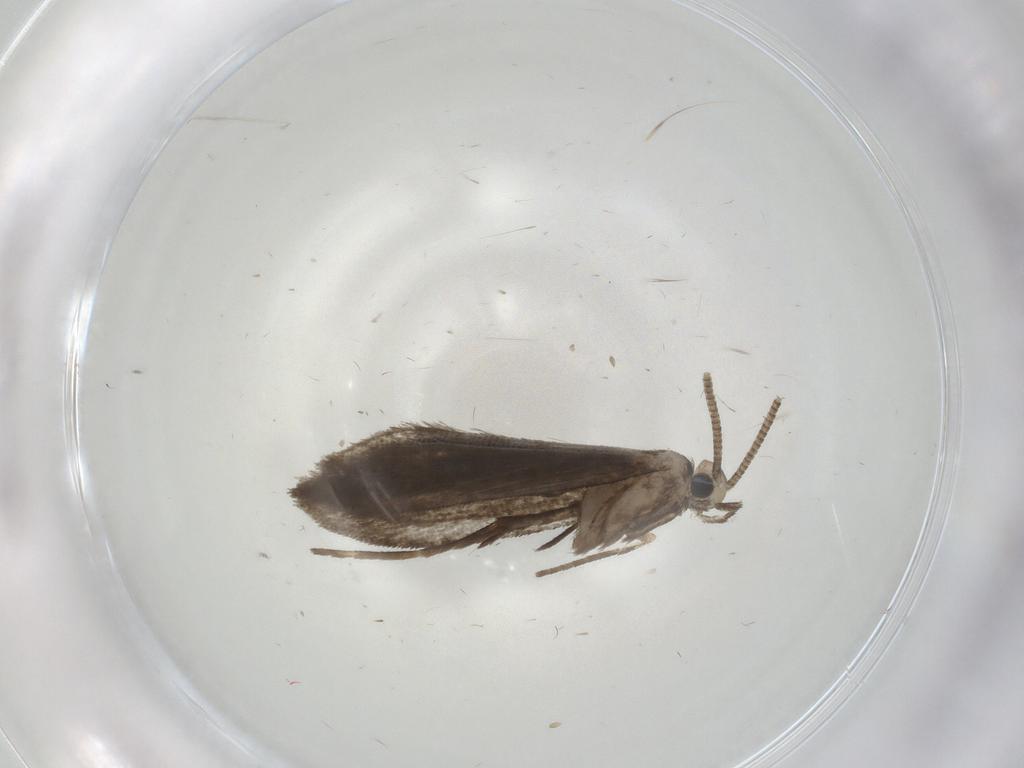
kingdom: Animalia
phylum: Arthropoda
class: Insecta
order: Lepidoptera
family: Nymphalidae
